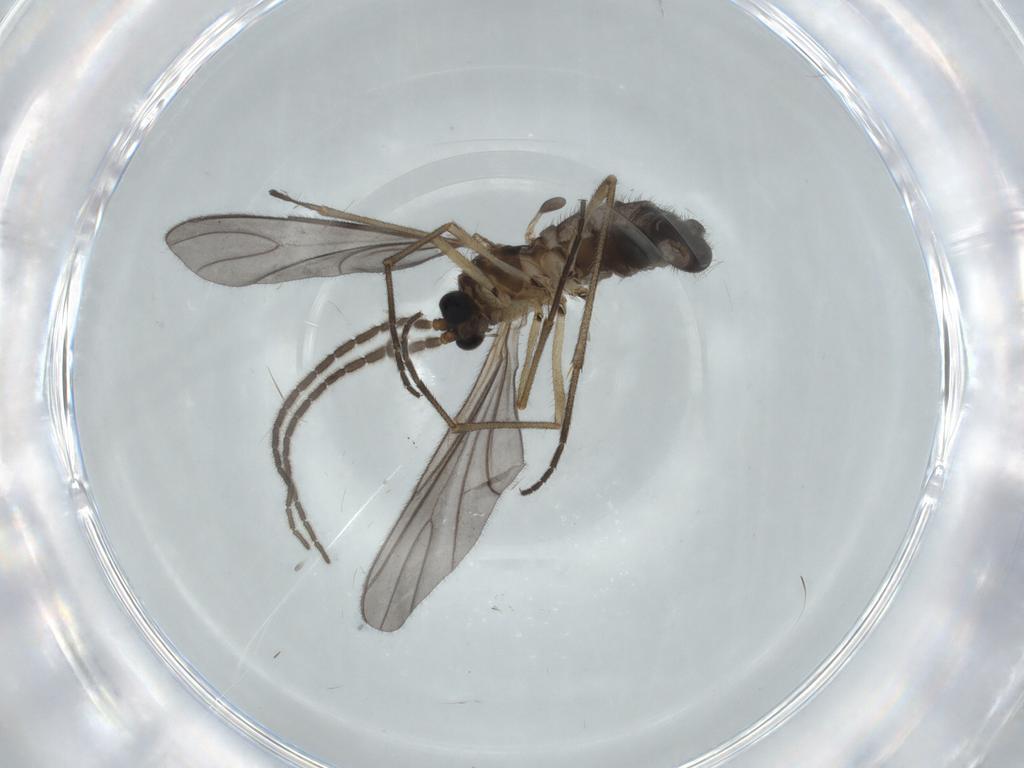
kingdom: Animalia
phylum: Arthropoda
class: Insecta
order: Diptera
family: Sciaridae
